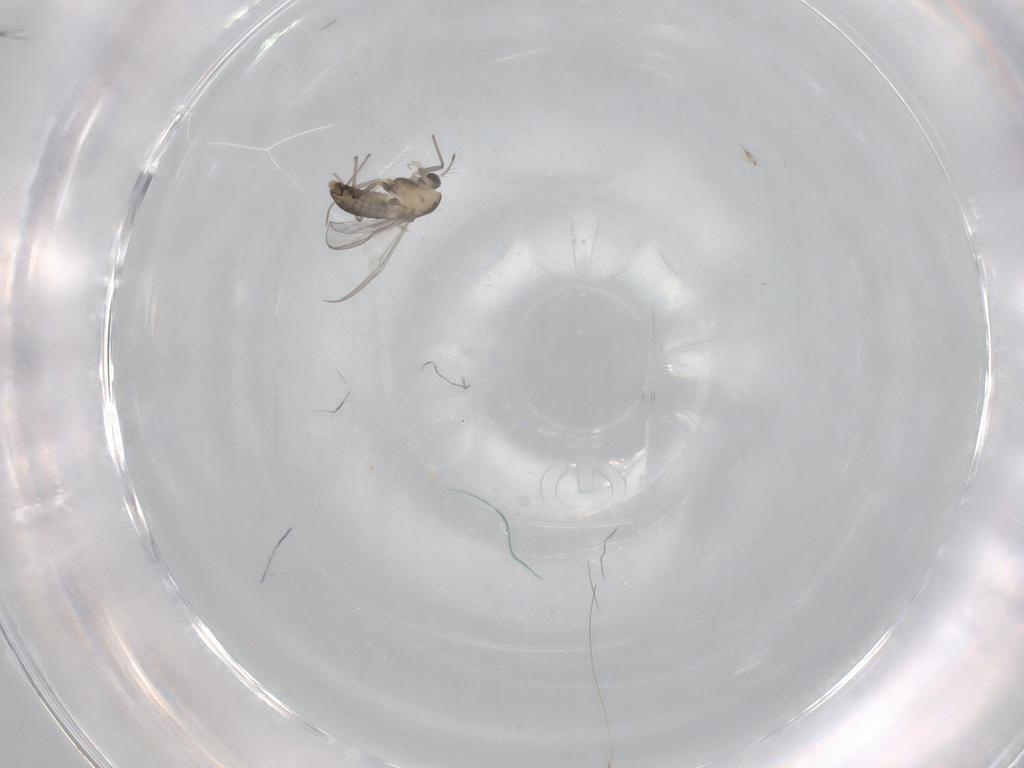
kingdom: Animalia
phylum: Arthropoda
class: Insecta
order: Diptera
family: Chironomidae
